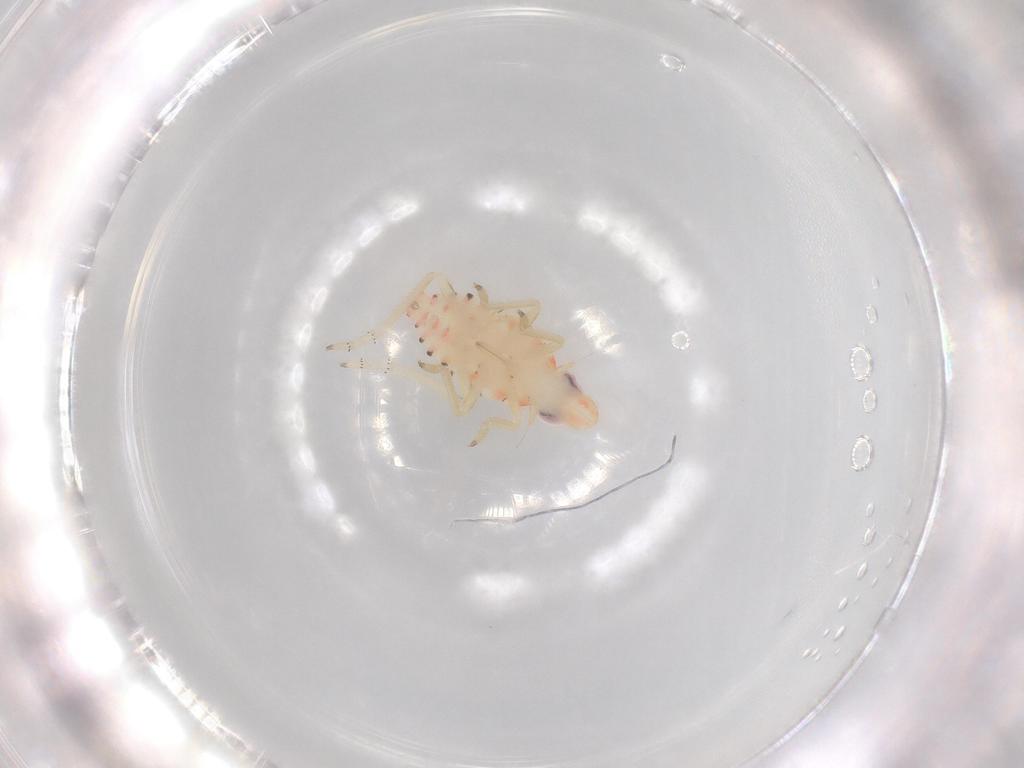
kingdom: Animalia
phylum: Arthropoda
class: Insecta
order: Hemiptera
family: Tropiduchidae
